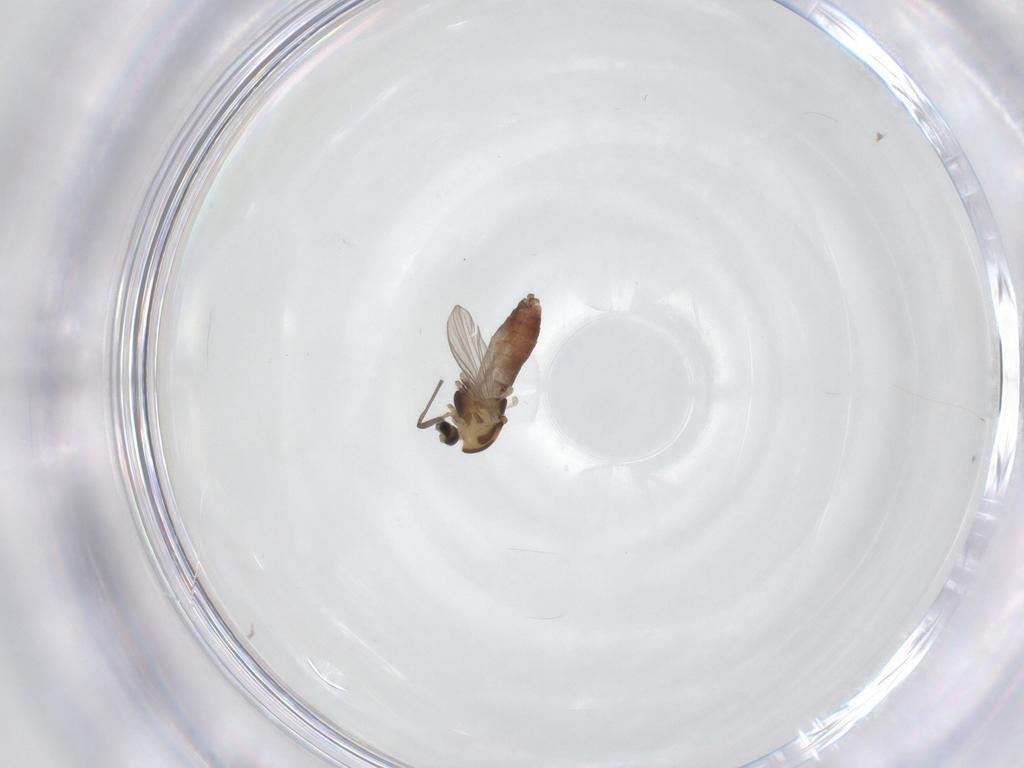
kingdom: Animalia
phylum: Arthropoda
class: Insecta
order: Diptera
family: Chironomidae
